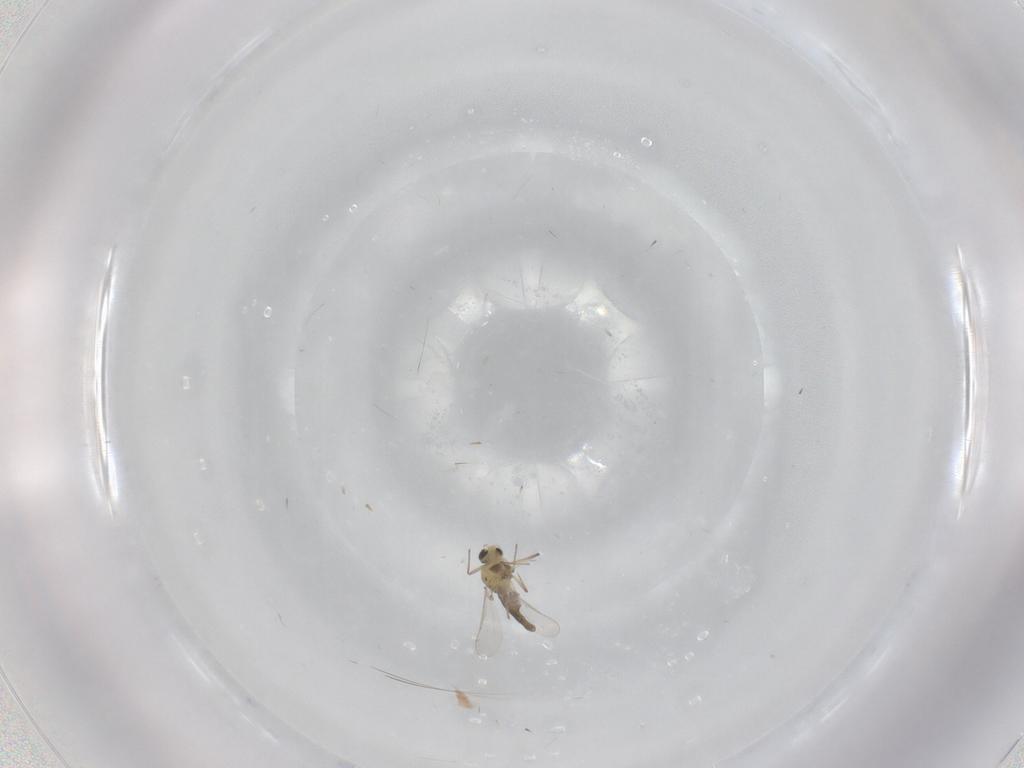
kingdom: Animalia
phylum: Arthropoda
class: Insecta
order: Diptera
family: Chironomidae
